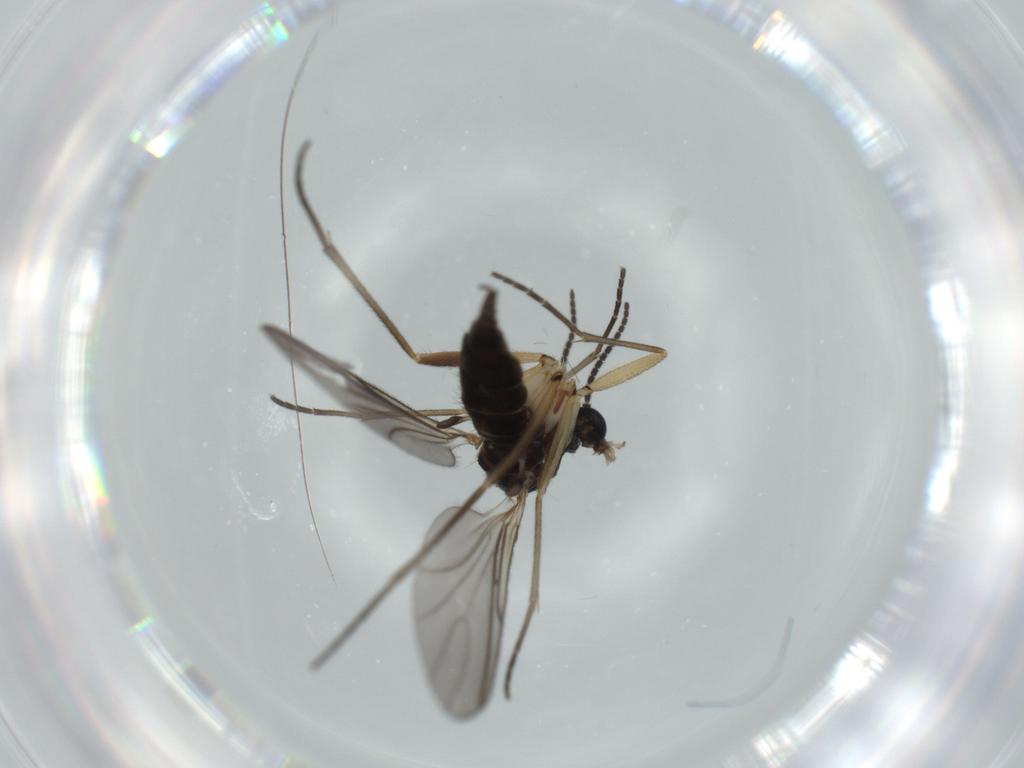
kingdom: Animalia
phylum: Arthropoda
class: Insecta
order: Diptera
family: Sciaridae
